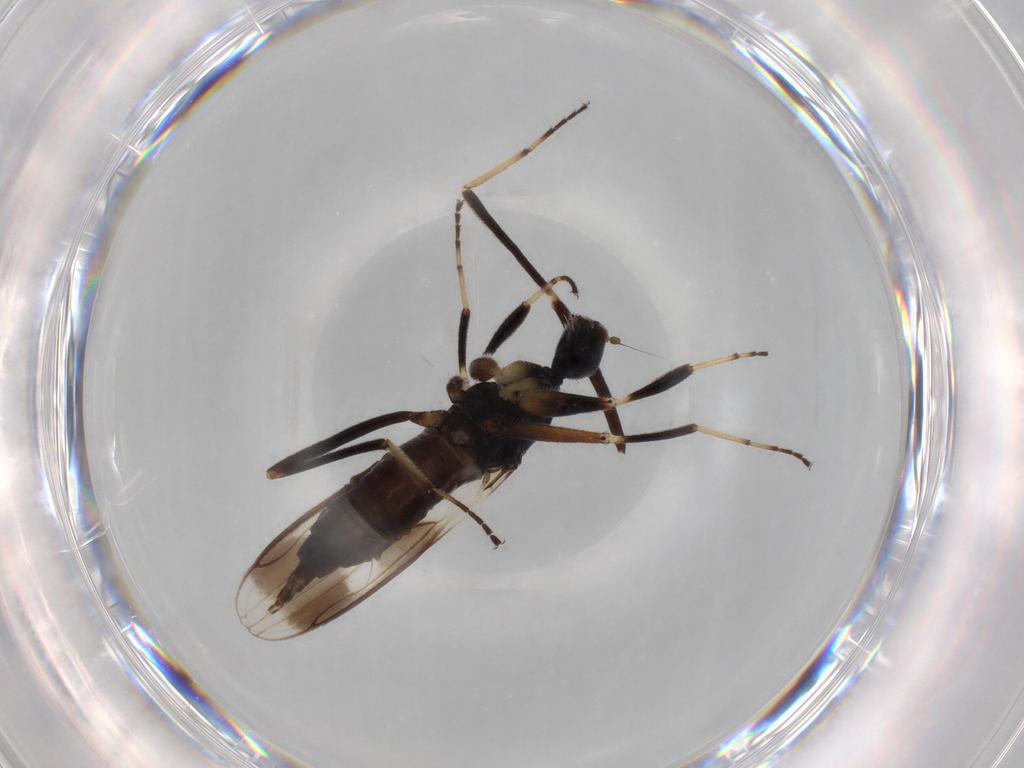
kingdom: Animalia
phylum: Arthropoda
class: Insecta
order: Diptera
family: Hybotidae
